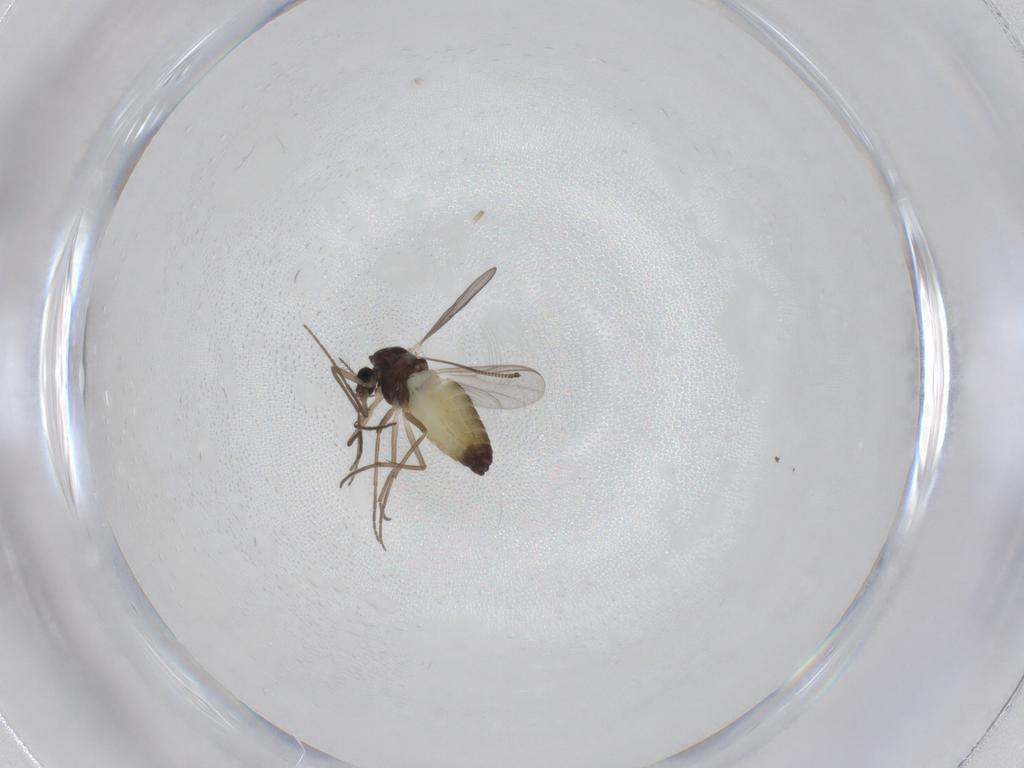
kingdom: Animalia
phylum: Arthropoda
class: Insecta
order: Diptera
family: Chironomidae
